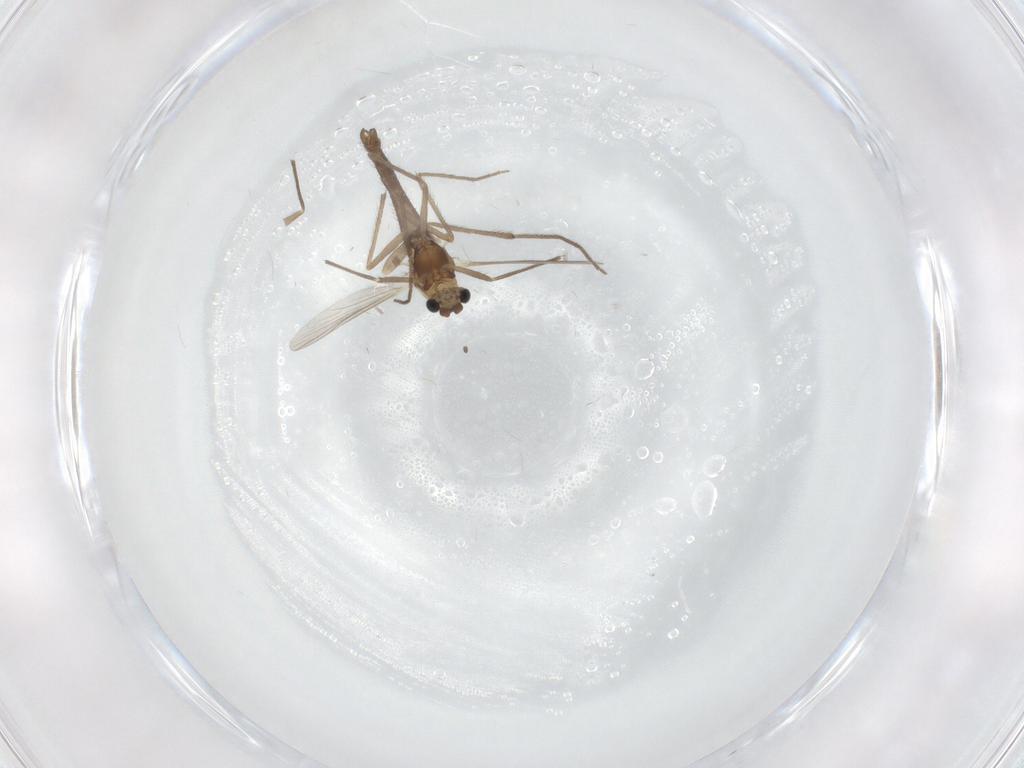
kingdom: Animalia
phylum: Arthropoda
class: Insecta
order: Diptera
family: Chironomidae
